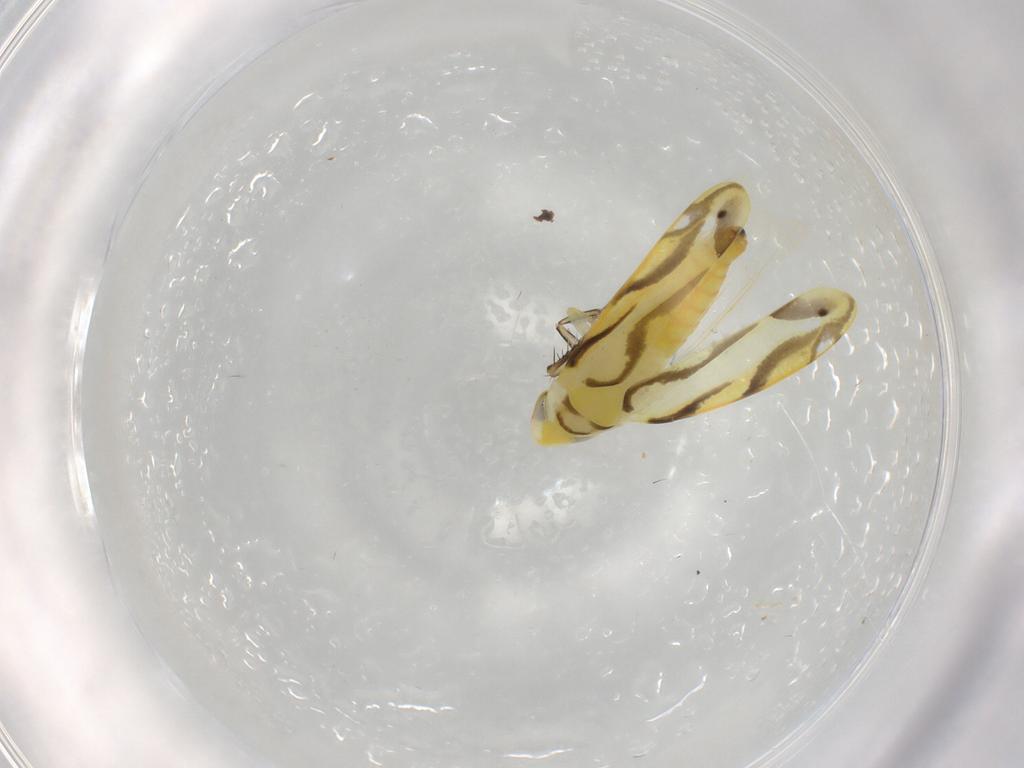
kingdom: Animalia
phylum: Arthropoda
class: Insecta
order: Hemiptera
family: Cicadellidae
